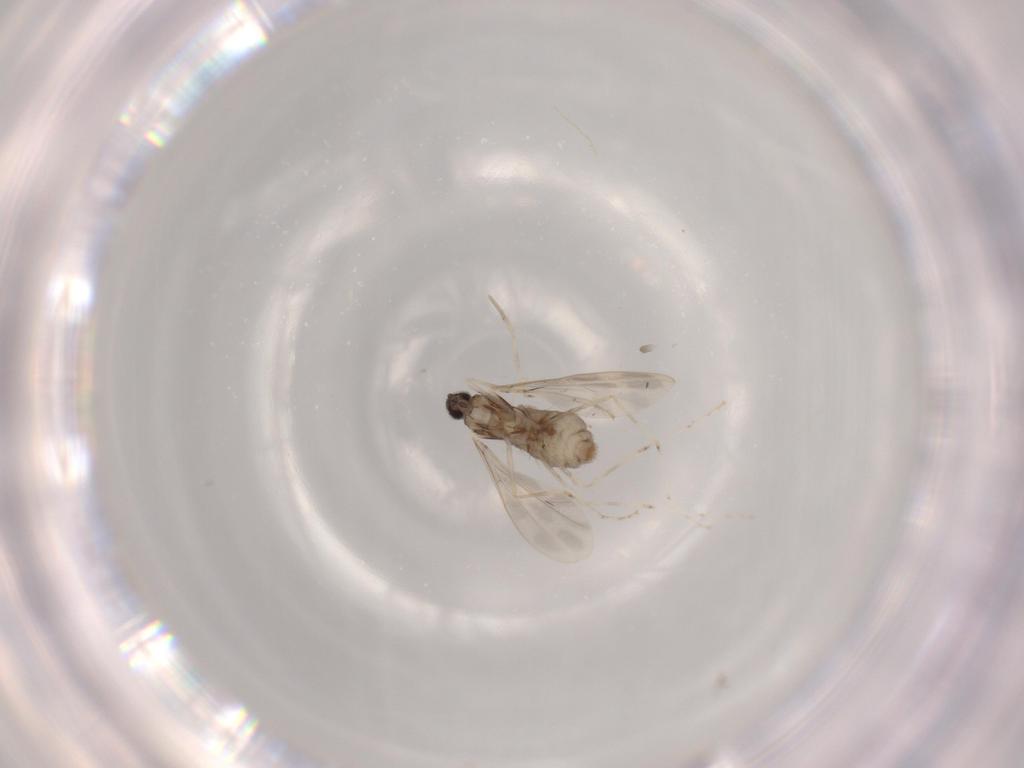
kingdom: Animalia
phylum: Arthropoda
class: Insecta
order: Diptera
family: Cecidomyiidae
